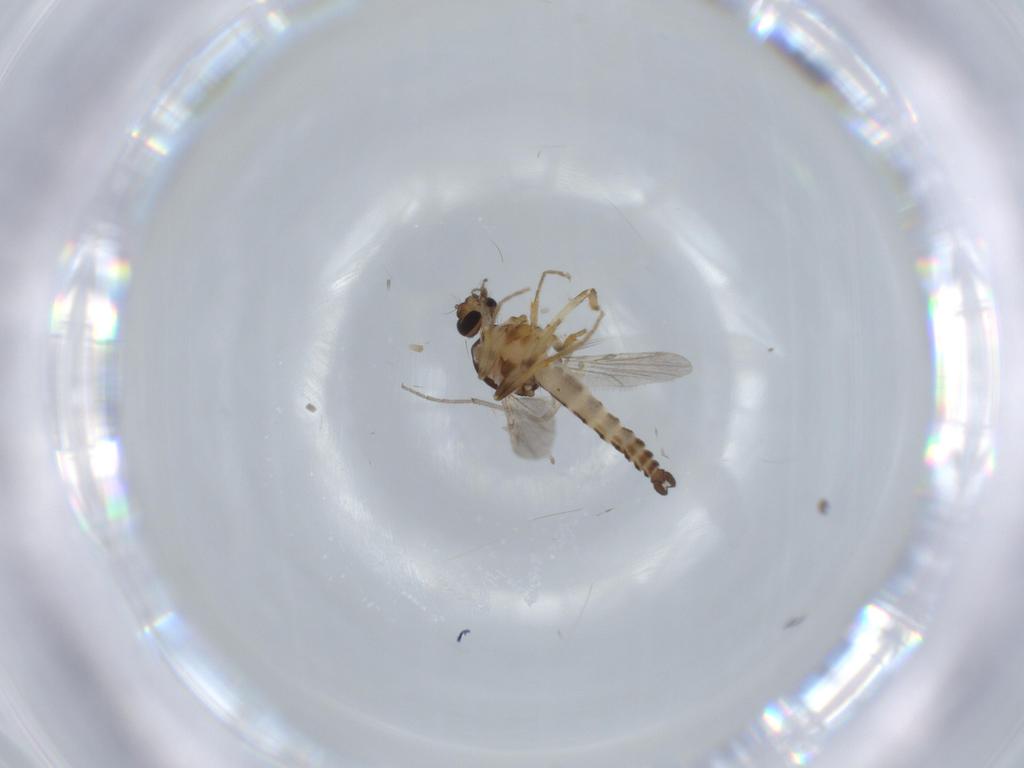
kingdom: Animalia
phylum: Arthropoda
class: Insecta
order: Diptera
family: Ceratopogonidae
